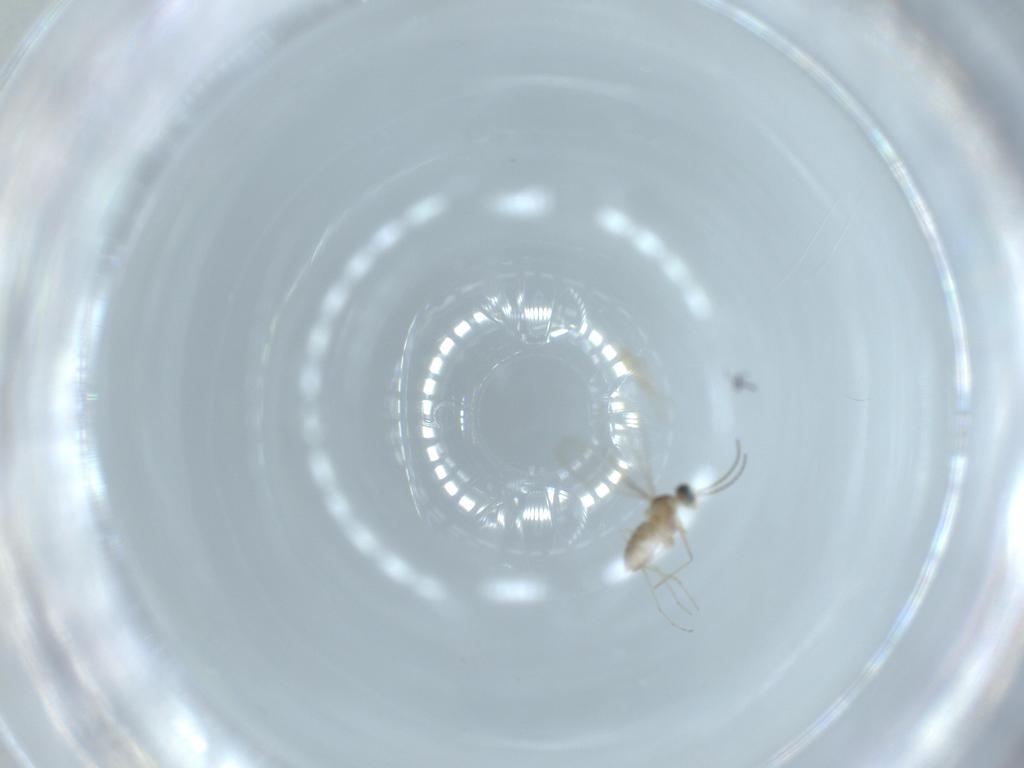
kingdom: Animalia
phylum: Arthropoda
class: Insecta
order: Diptera
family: Cecidomyiidae
